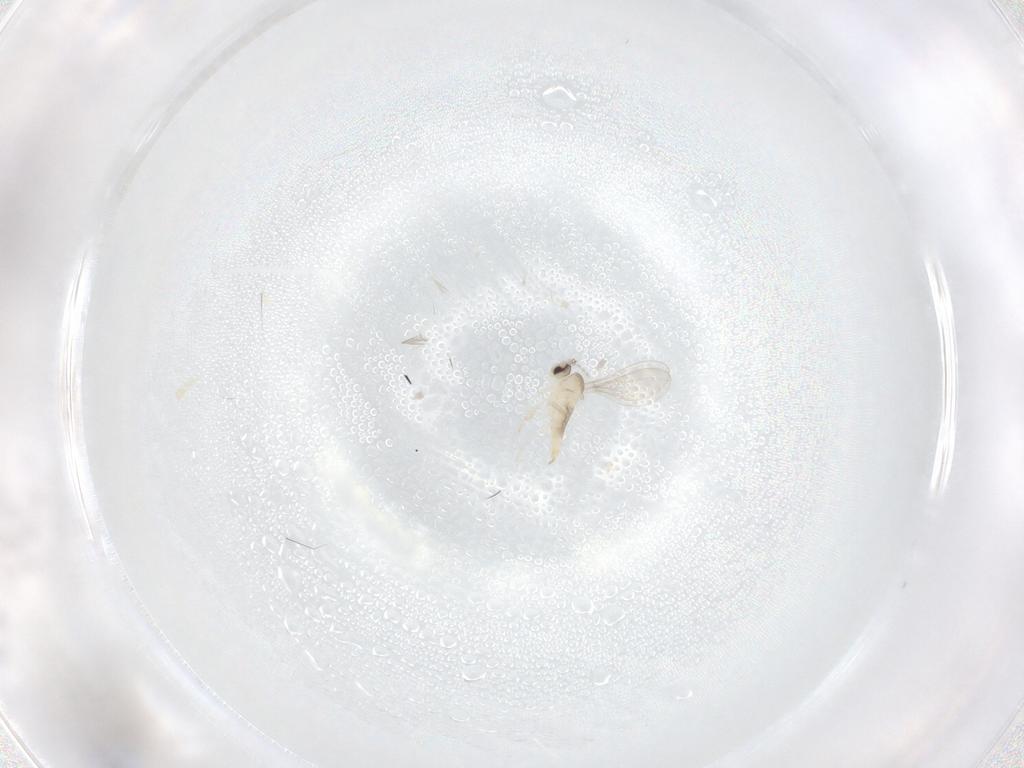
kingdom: Animalia
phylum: Arthropoda
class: Insecta
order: Diptera
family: Cecidomyiidae
